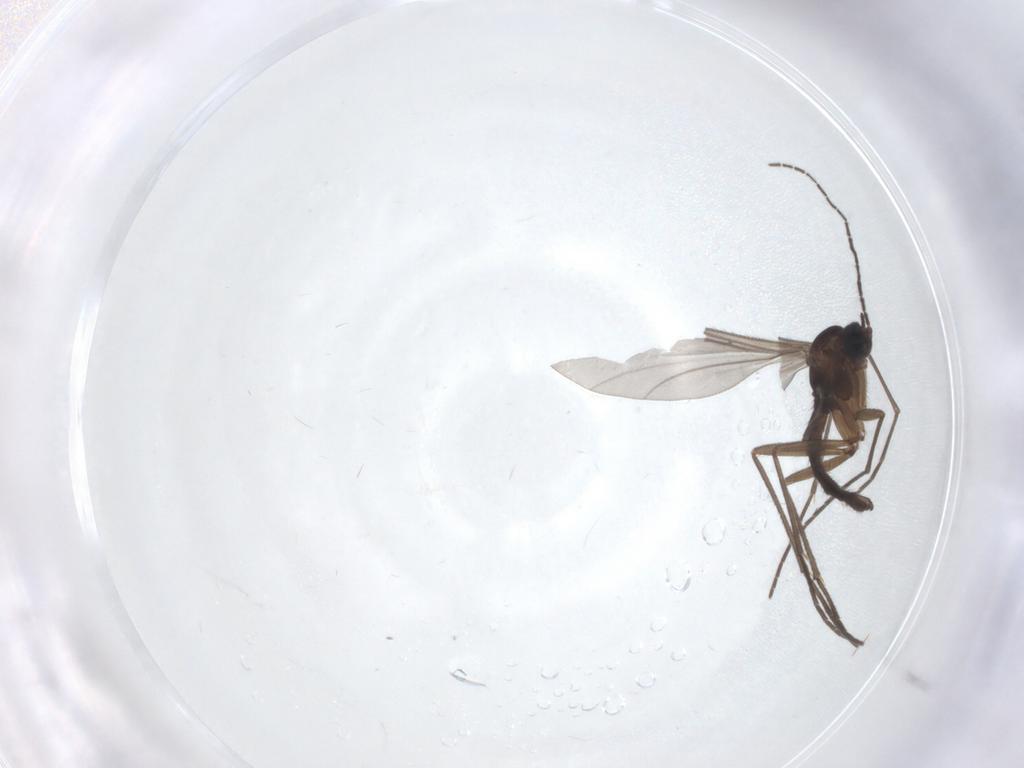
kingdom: Animalia
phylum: Arthropoda
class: Insecta
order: Diptera
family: Sciaridae
